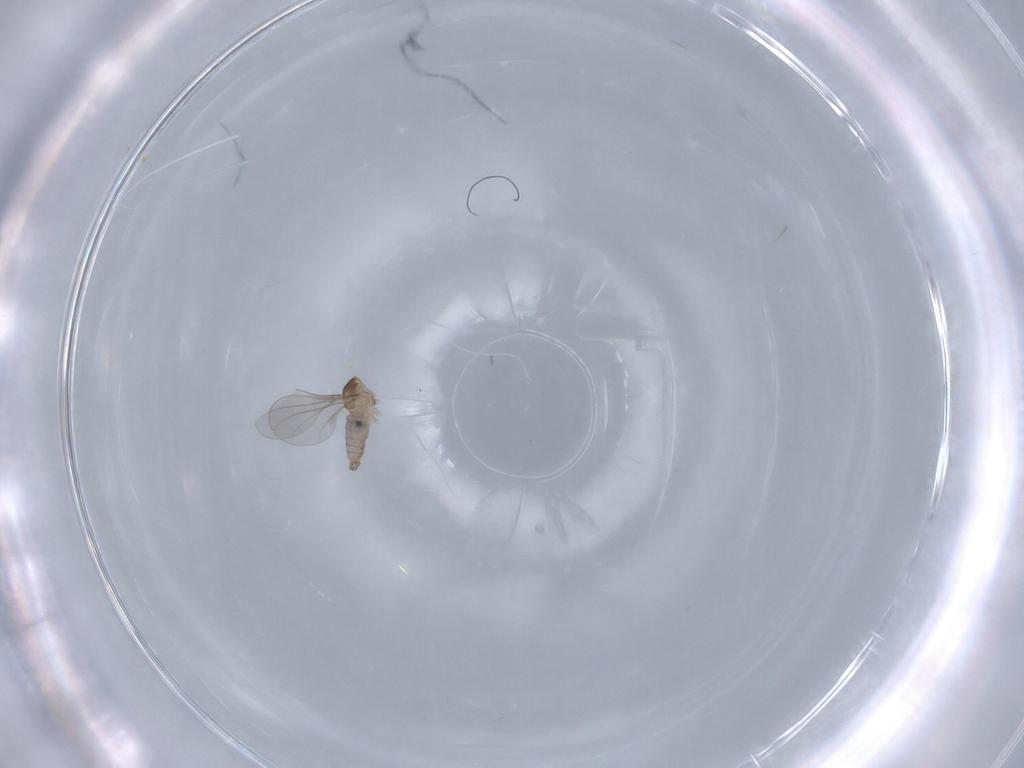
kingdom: Animalia
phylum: Arthropoda
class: Insecta
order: Diptera
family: Cecidomyiidae
